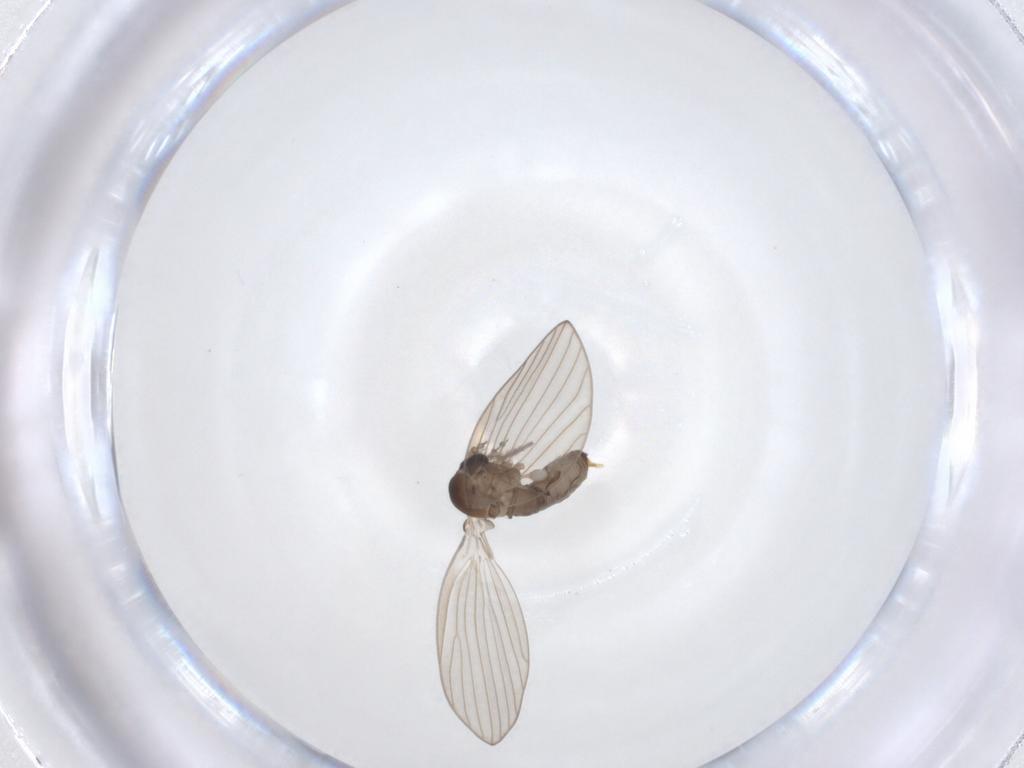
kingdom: Animalia
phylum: Arthropoda
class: Insecta
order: Diptera
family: Psychodidae
